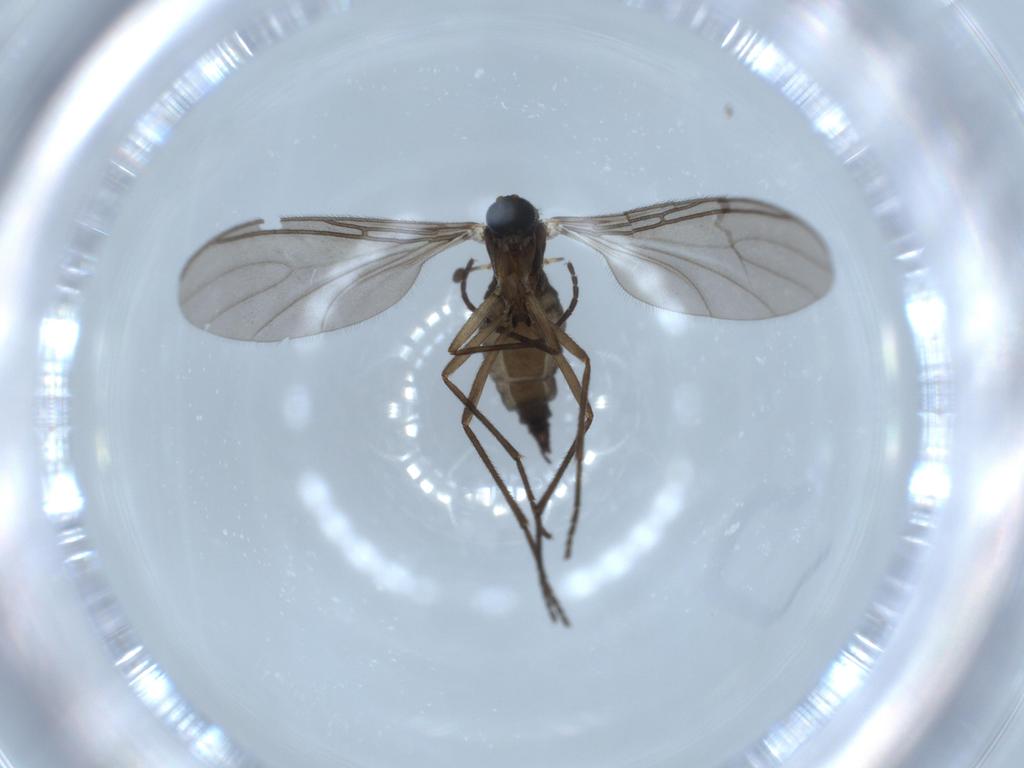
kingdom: Animalia
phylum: Arthropoda
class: Insecta
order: Diptera
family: Sciaridae
